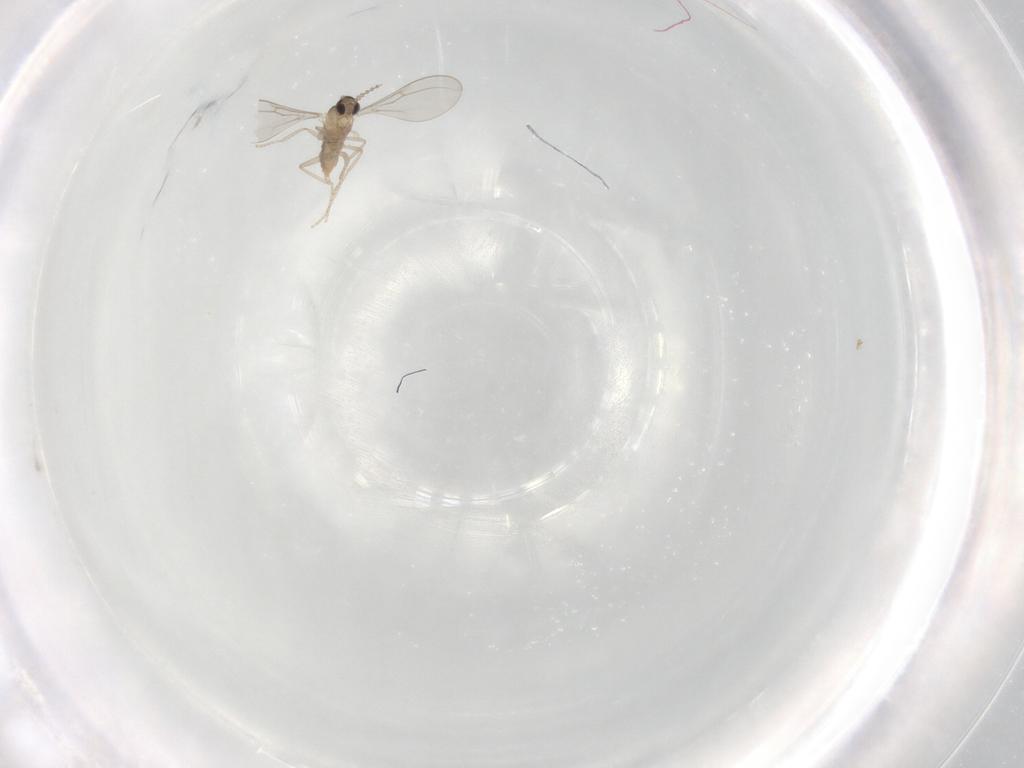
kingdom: Animalia
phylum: Arthropoda
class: Insecta
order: Diptera
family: Cecidomyiidae
